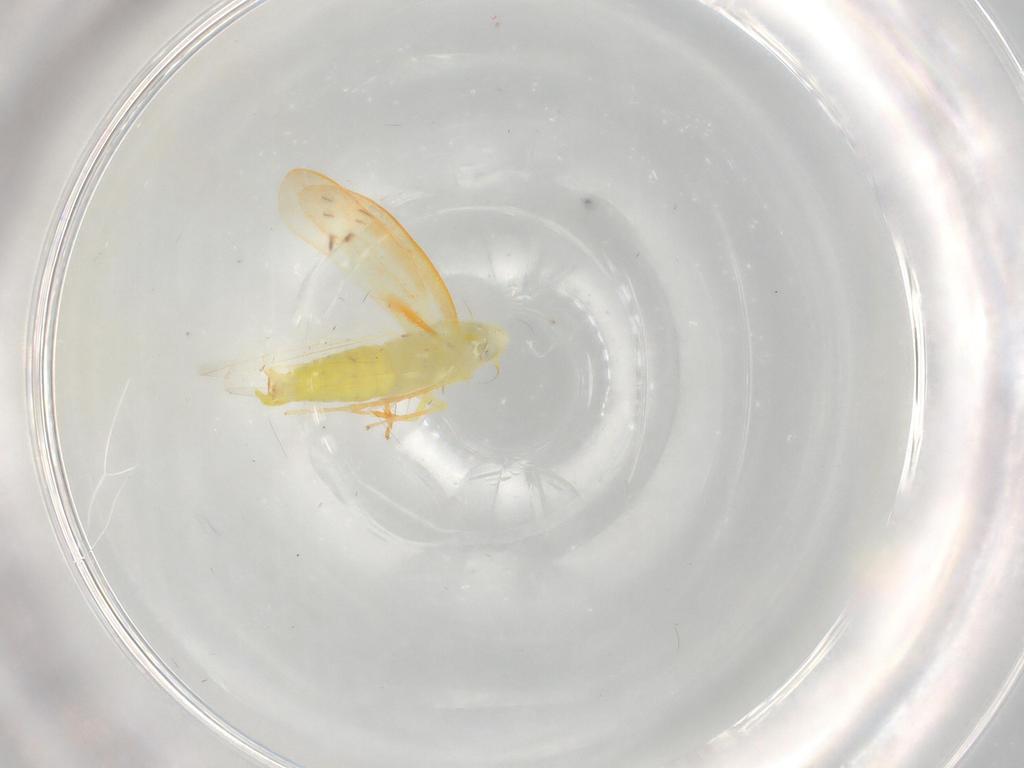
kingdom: Animalia
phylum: Arthropoda
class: Insecta
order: Hemiptera
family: Cicadellidae
